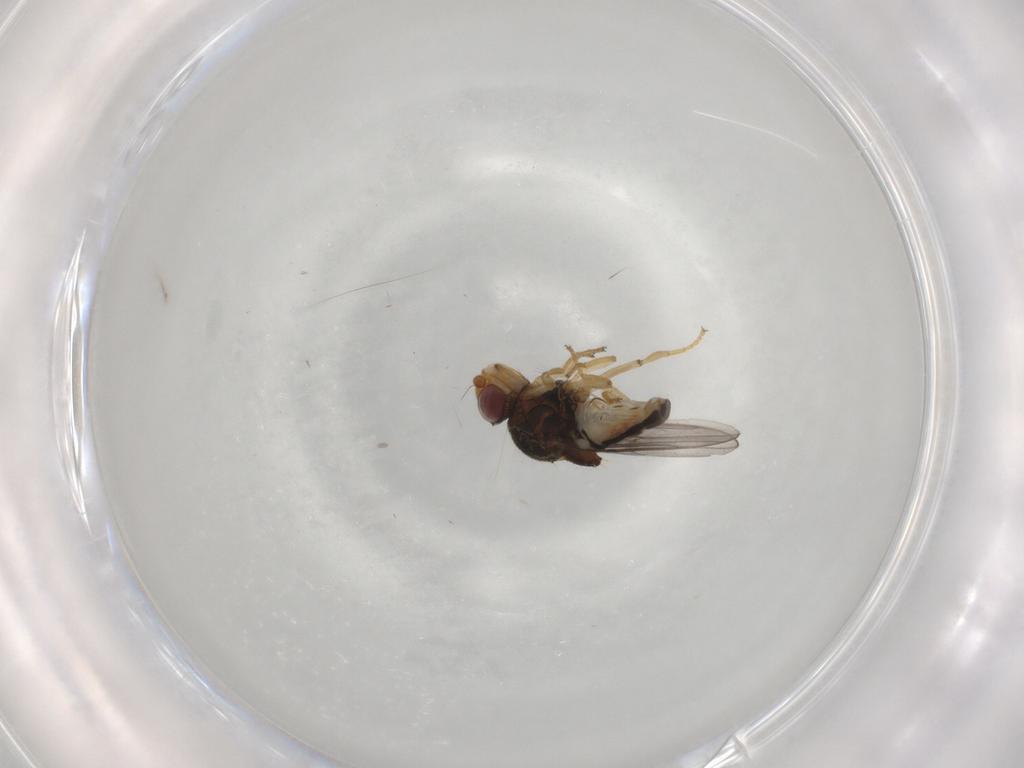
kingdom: Animalia
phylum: Arthropoda
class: Insecta
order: Diptera
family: Chloropidae
